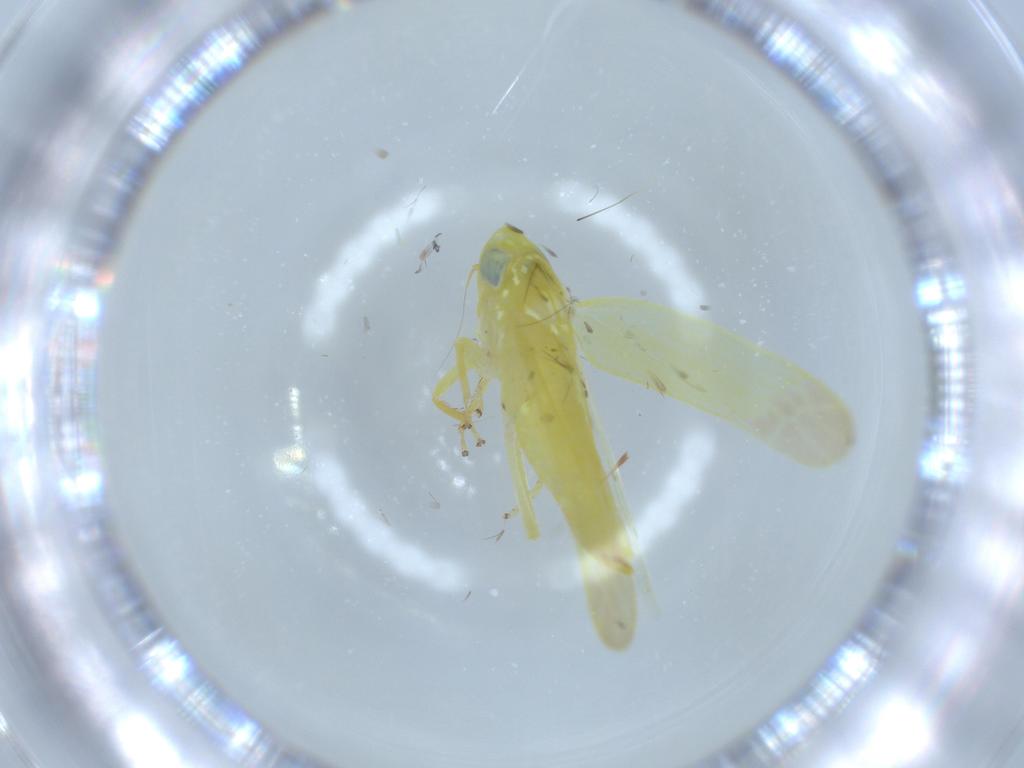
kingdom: Animalia
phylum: Arthropoda
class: Insecta
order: Hemiptera
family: Cicadellidae
